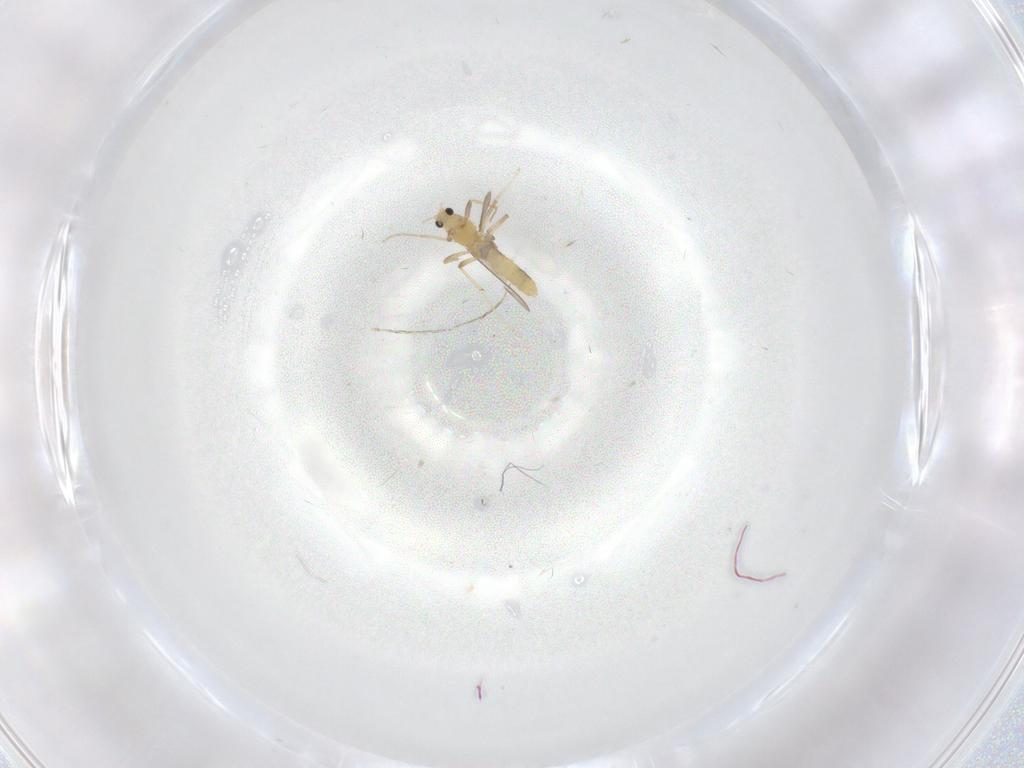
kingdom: Animalia
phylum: Arthropoda
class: Insecta
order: Diptera
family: Chironomidae
